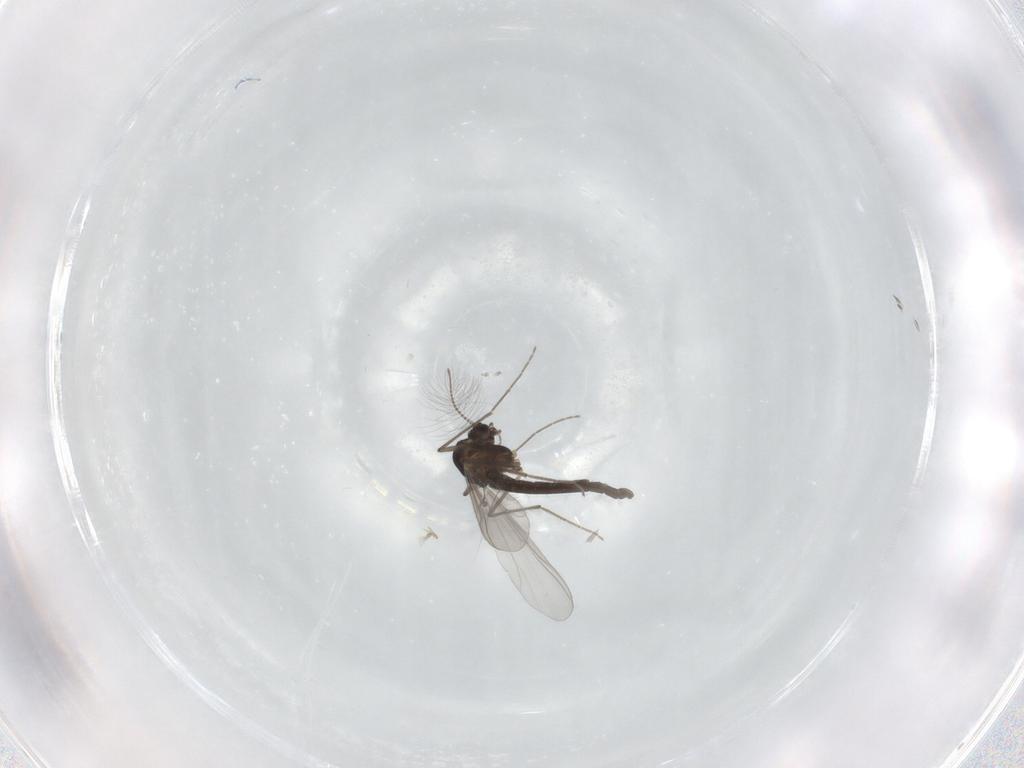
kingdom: Animalia
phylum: Arthropoda
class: Insecta
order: Diptera
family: Chironomidae
